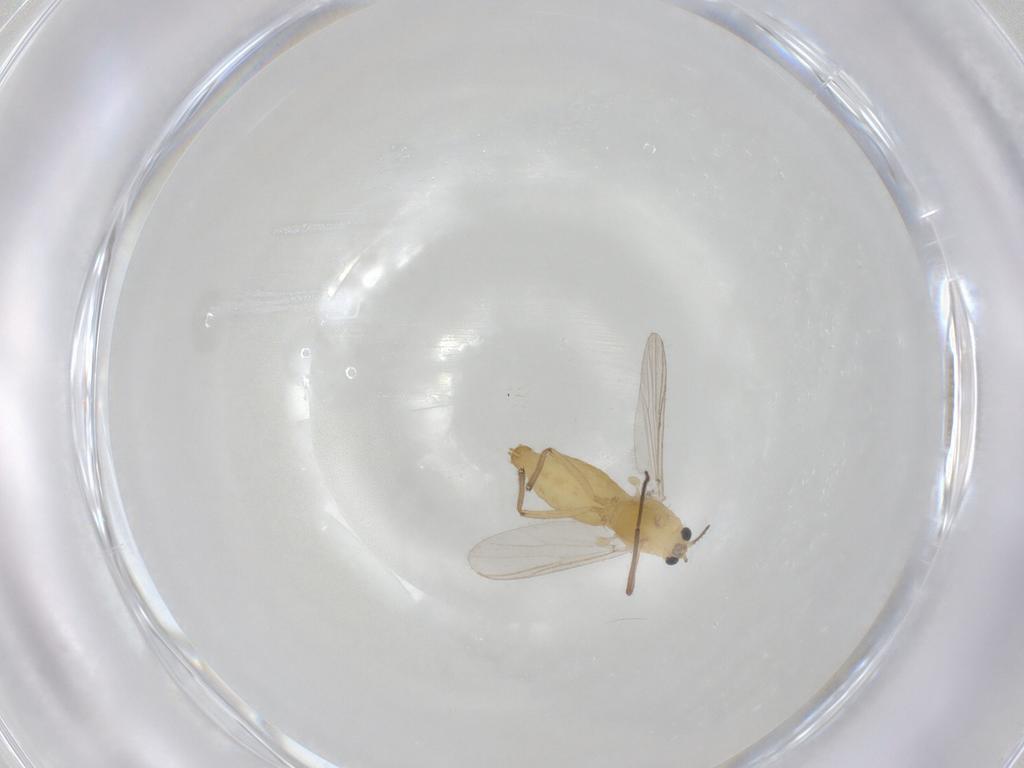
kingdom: Animalia
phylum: Arthropoda
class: Insecta
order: Diptera
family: Chironomidae
